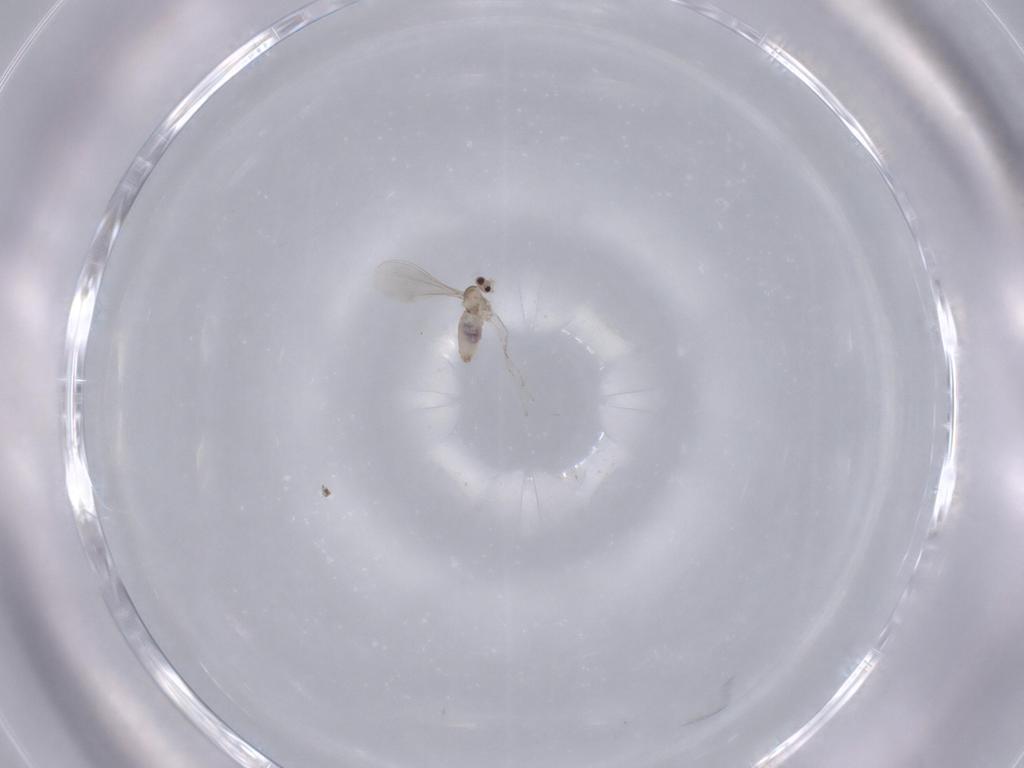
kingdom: Animalia
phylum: Arthropoda
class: Insecta
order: Diptera
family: Cecidomyiidae
